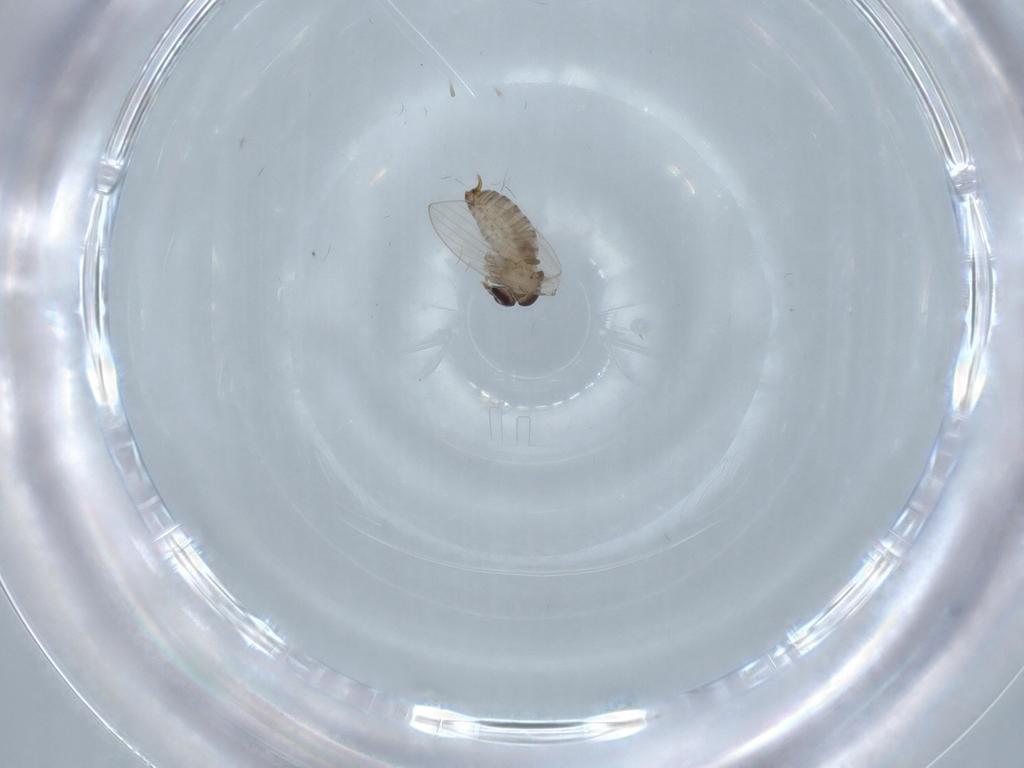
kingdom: Animalia
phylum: Arthropoda
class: Insecta
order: Diptera
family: Psychodidae
